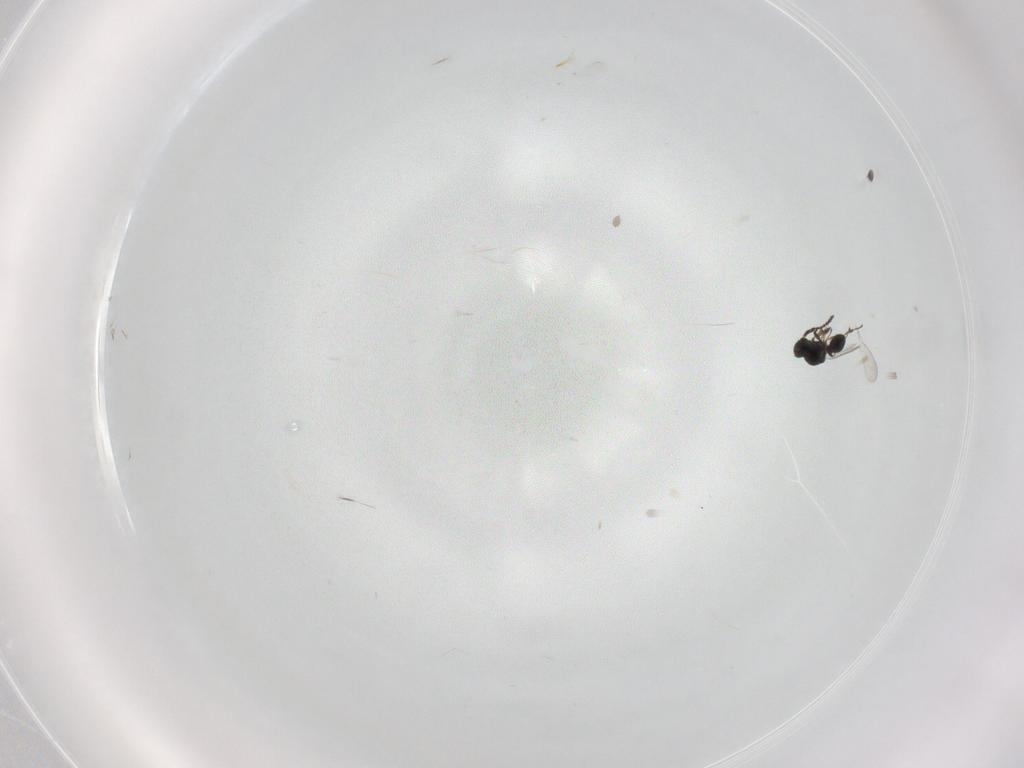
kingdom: Animalia
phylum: Arthropoda
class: Insecta
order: Hymenoptera
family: Platygastridae
